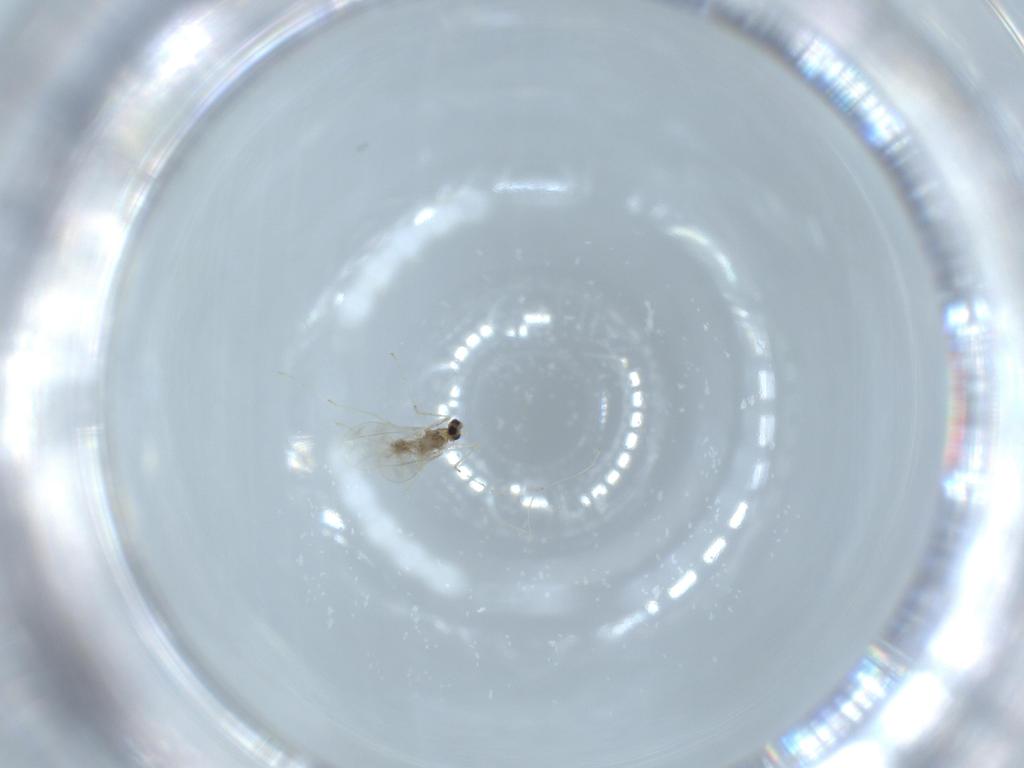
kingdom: Animalia
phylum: Arthropoda
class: Insecta
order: Diptera
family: Cecidomyiidae
